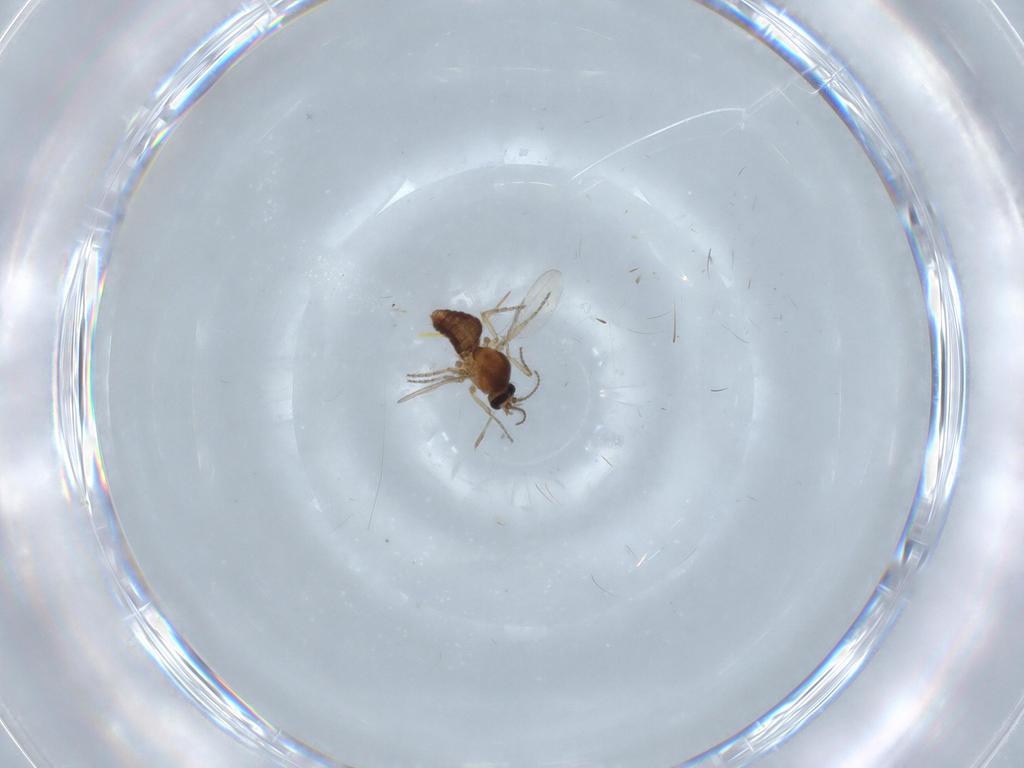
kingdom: Animalia
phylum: Arthropoda
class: Insecta
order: Diptera
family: Ceratopogonidae
